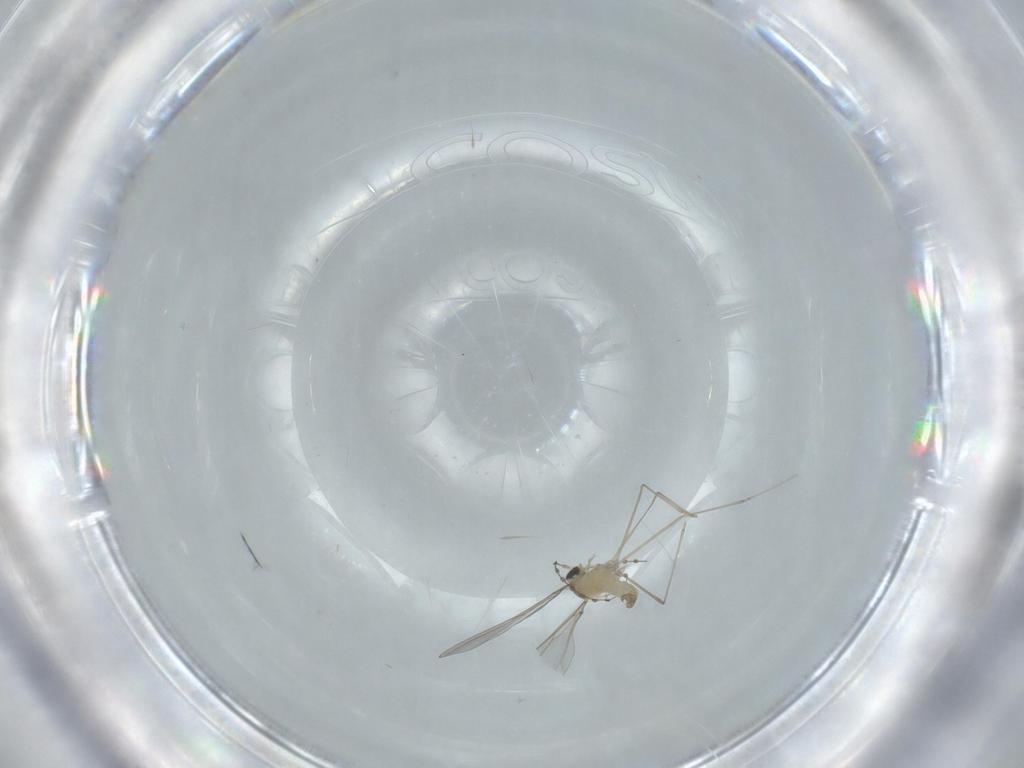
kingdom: Animalia
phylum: Arthropoda
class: Insecta
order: Diptera
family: Cecidomyiidae
